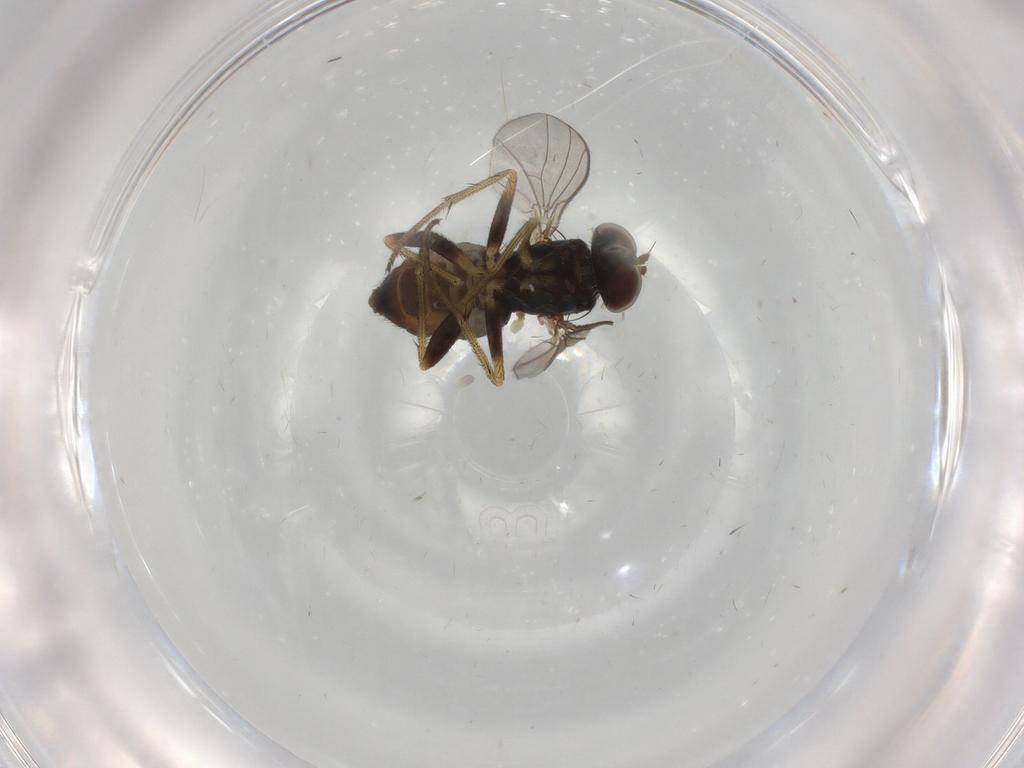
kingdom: Animalia
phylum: Arthropoda
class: Insecta
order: Diptera
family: Dolichopodidae
